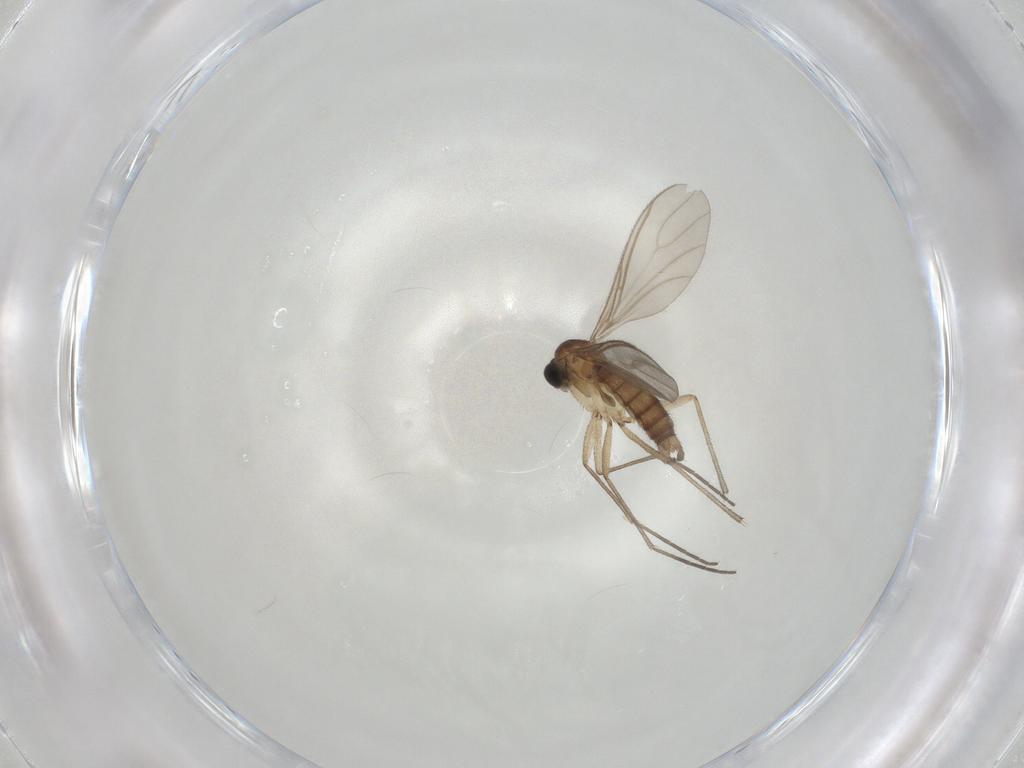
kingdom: Animalia
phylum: Arthropoda
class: Insecta
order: Diptera
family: Sciaridae
